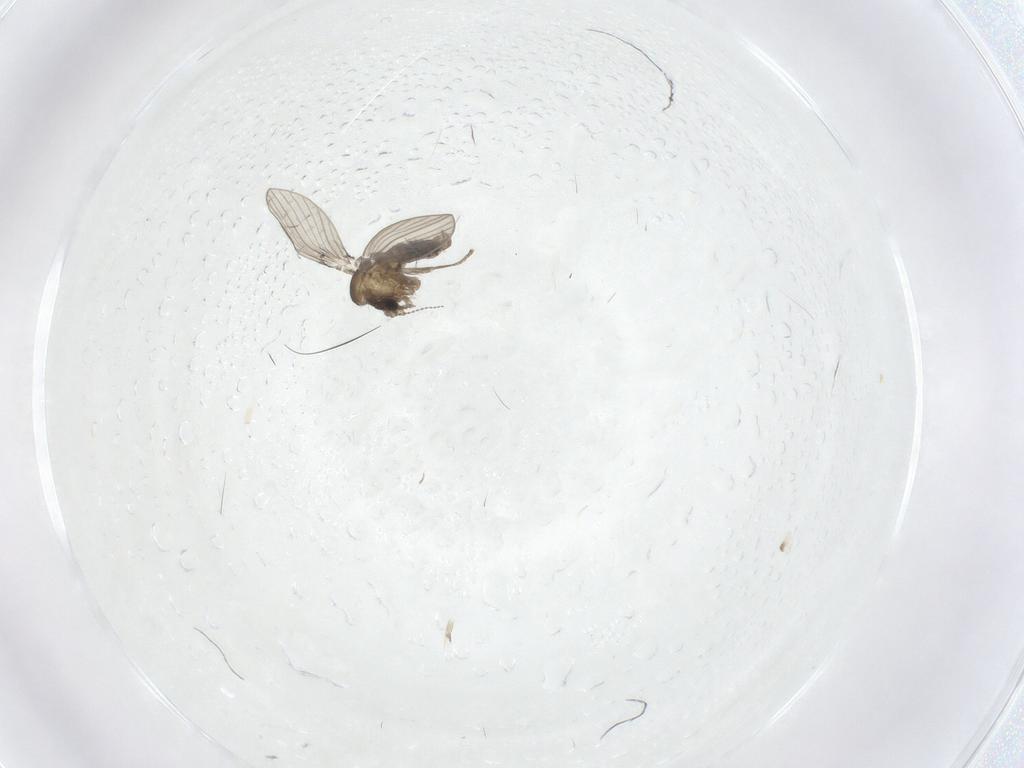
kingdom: Animalia
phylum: Arthropoda
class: Insecta
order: Diptera
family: Psychodidae
